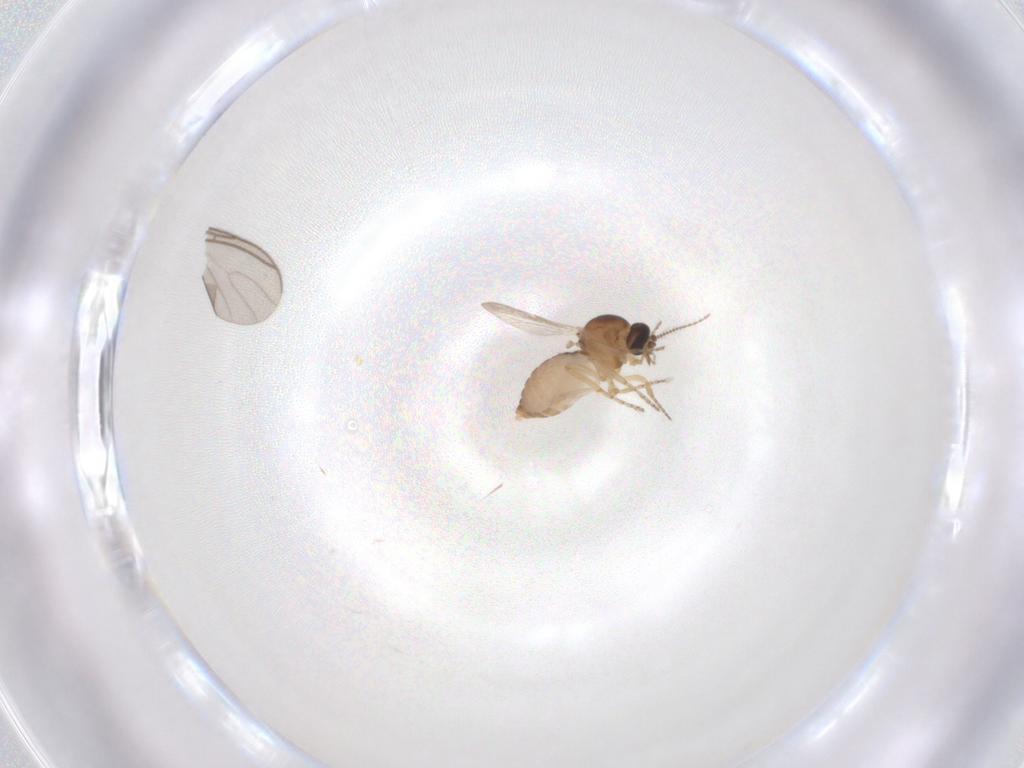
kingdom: Animalia
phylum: Arthropoda
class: Insecta
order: Diptera
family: Ceratopogonidae
